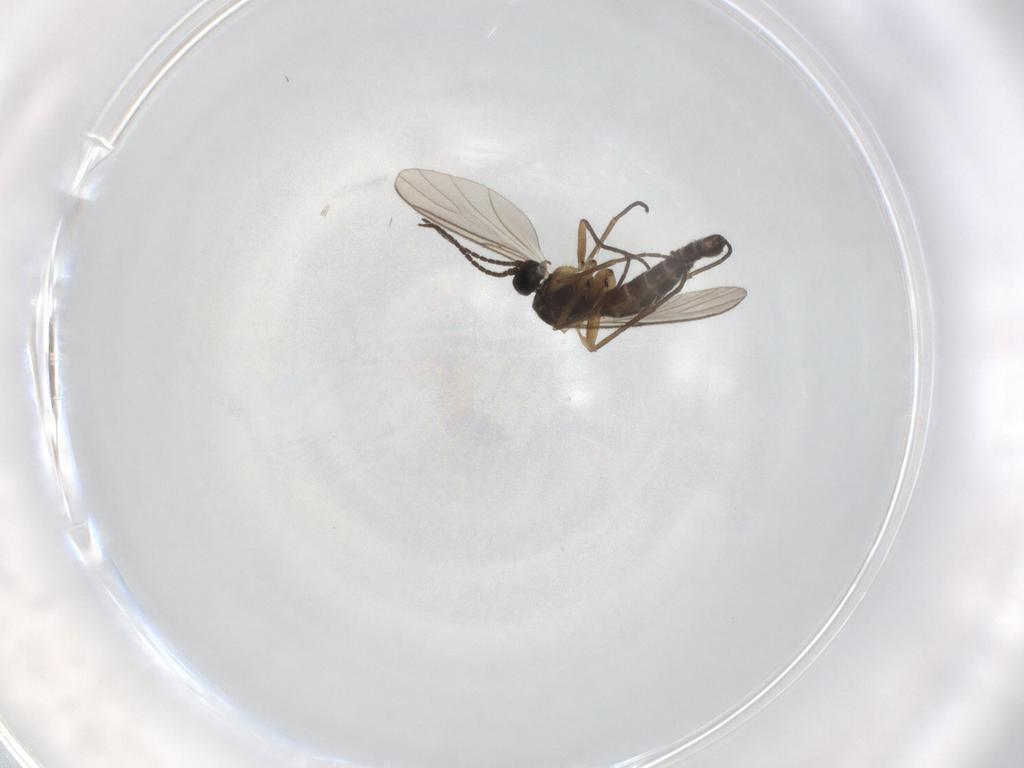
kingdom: Animalia
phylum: Arthropoda
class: Insecta
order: Diptera
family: Sciaridae
